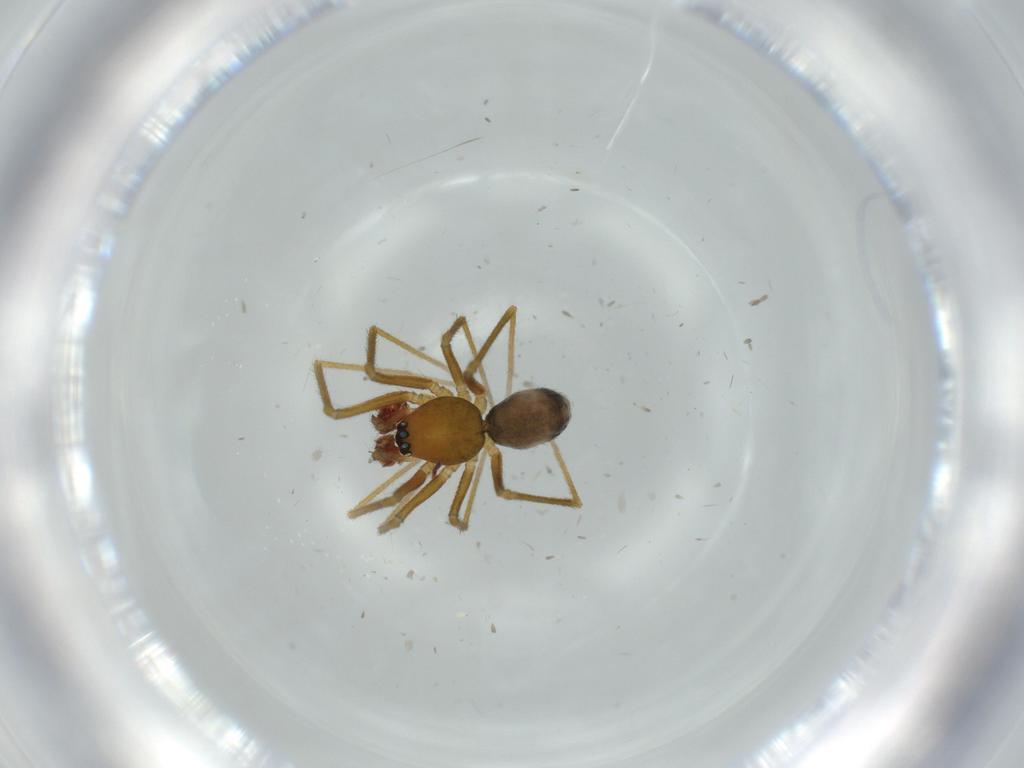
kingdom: Animalia
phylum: Arthropoda
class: Arachnida
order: Araneae
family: Linyphiidae
